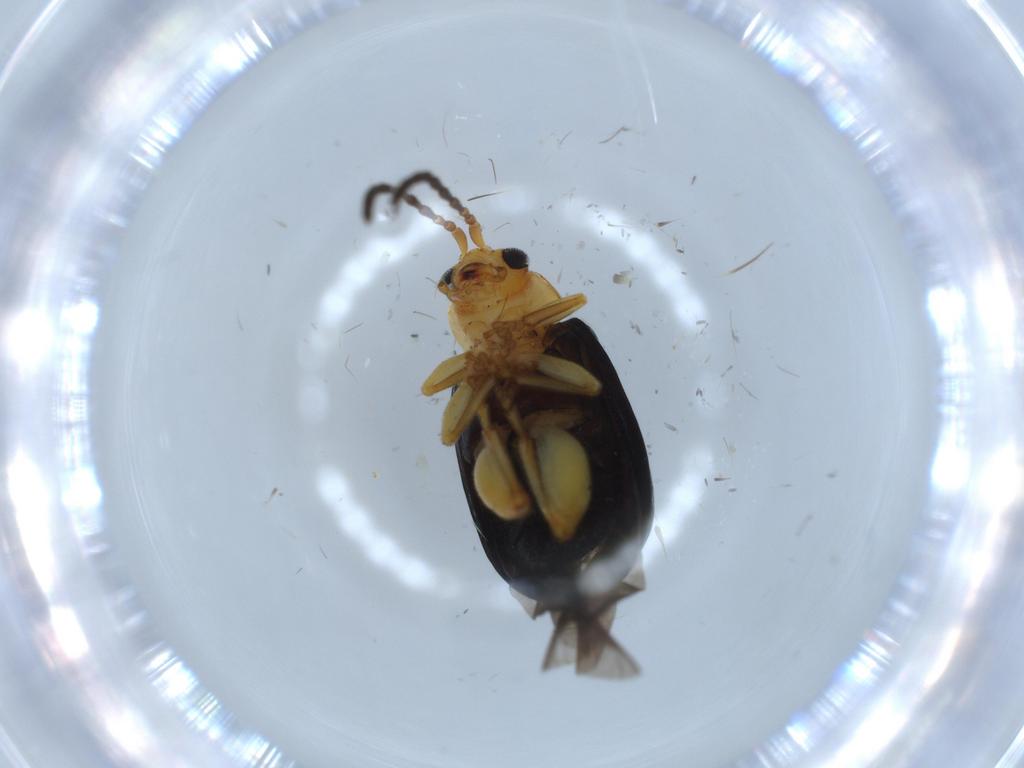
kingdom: Animalia
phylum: Arthropoda
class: Insecta
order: Coleoptera
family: Chrysomelidae
